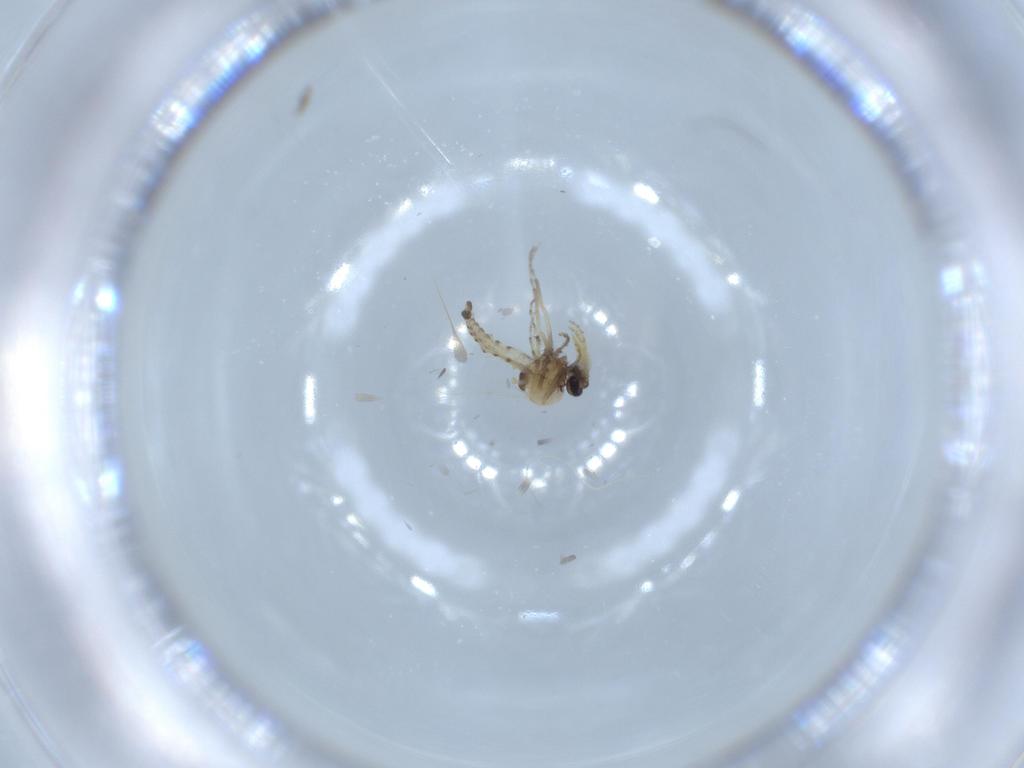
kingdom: Animalia
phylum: Arthropoda
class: Insecta
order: Diptera
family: Ceratopogonidae
